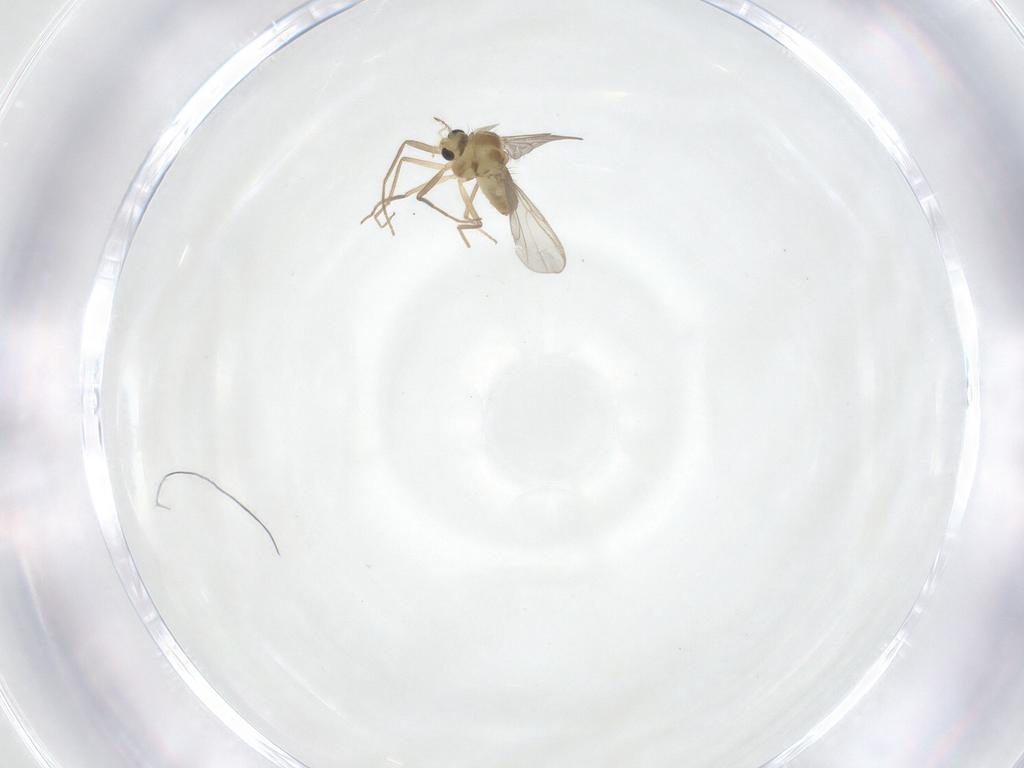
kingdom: Animalia
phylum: Arthropoda
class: Insecta
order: Diptera
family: Chironomidae
